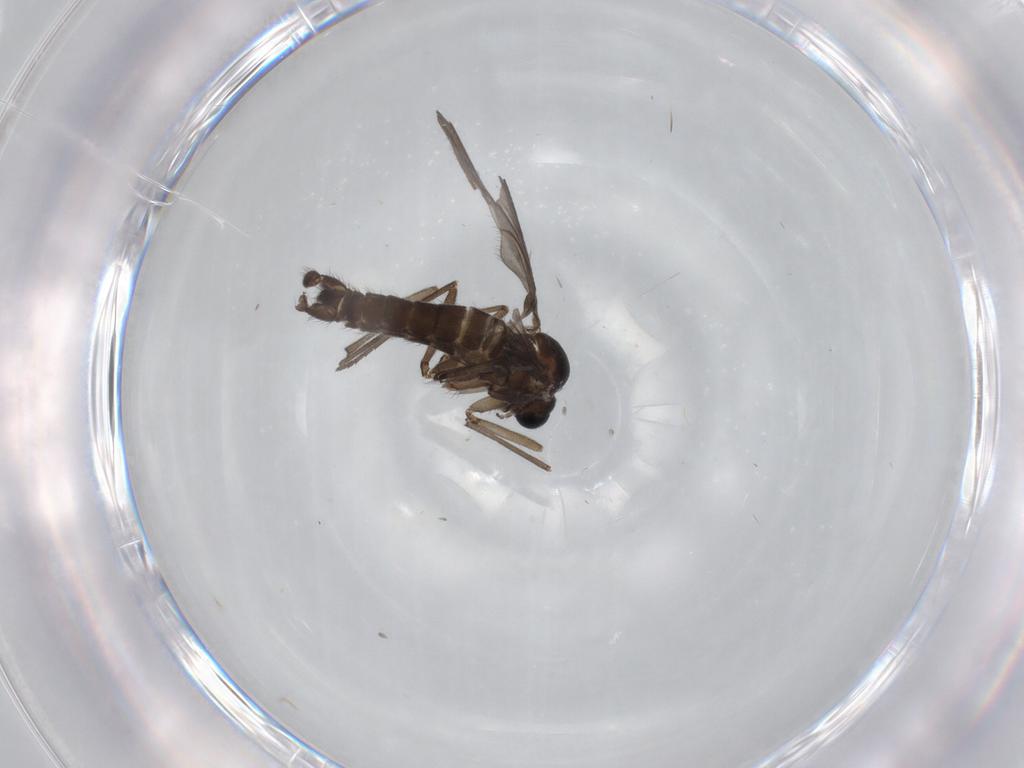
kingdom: Animalia
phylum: Arthropoda
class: Insecta
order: Diptera
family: Sciaridae
